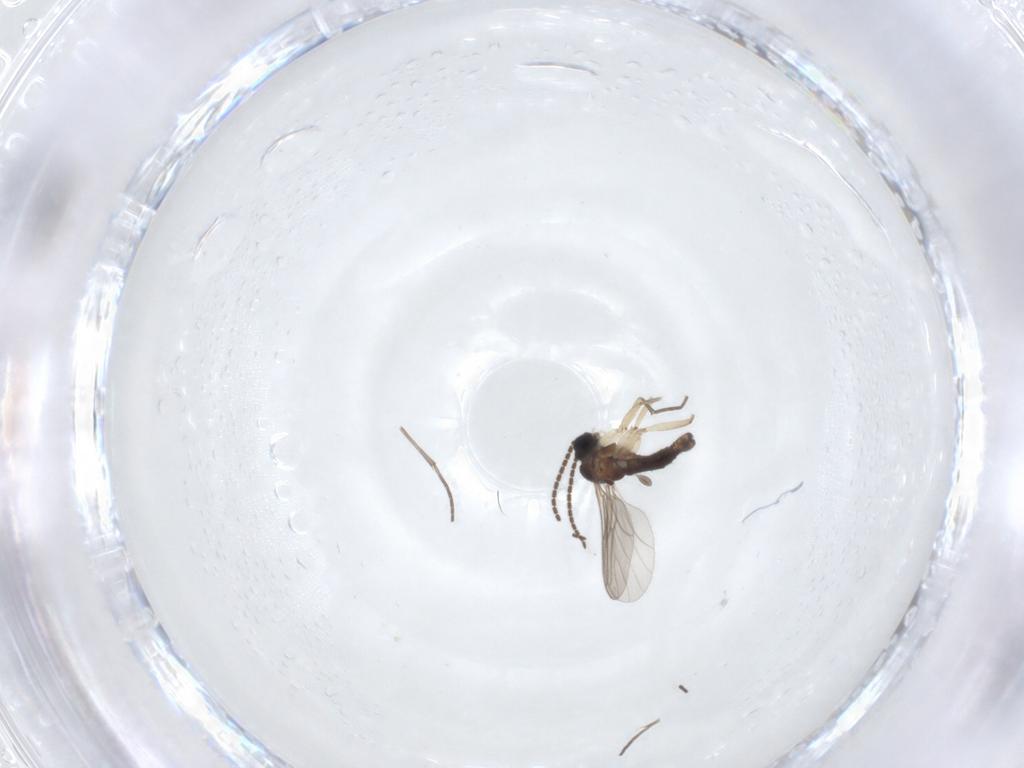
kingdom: Animalia
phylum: Arthropoda
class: Insecta
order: Diptera
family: Sciaridae
